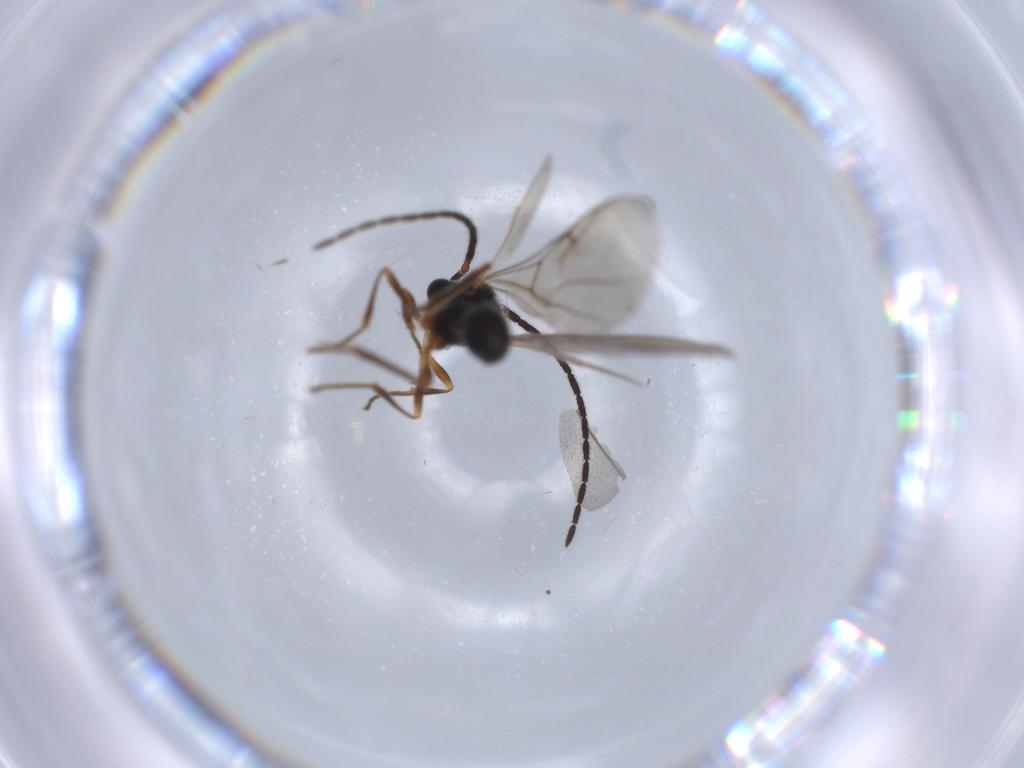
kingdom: Animalia
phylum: Arthropoda
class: Insecta
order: Hymenoptera
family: Diapriidae
